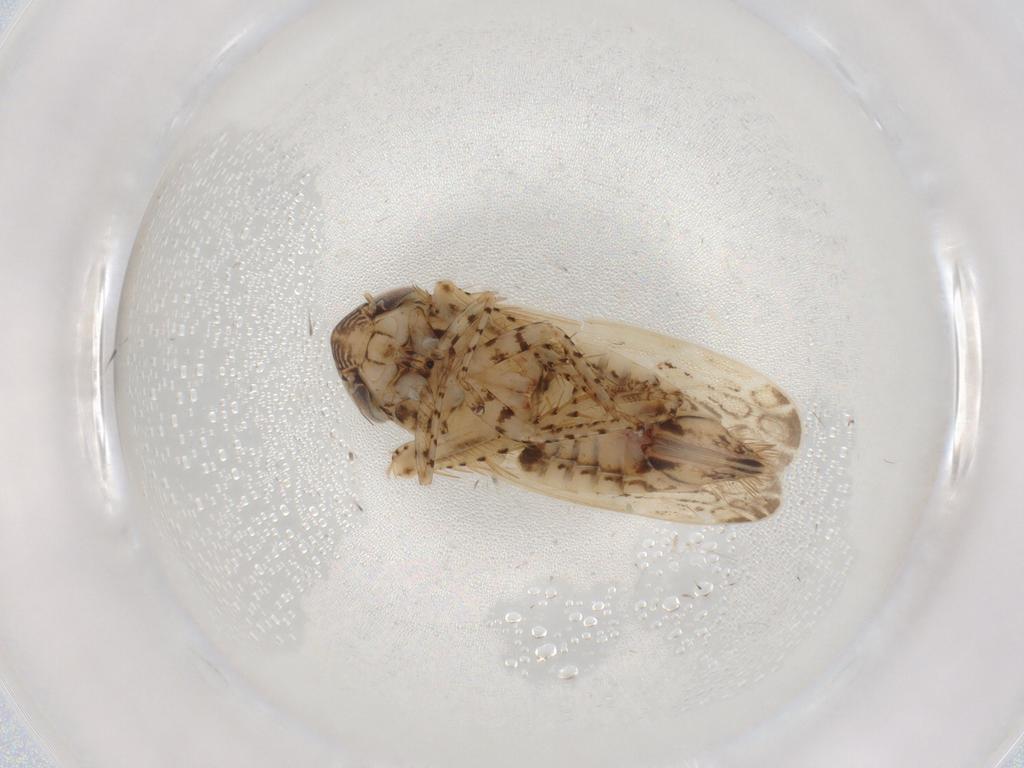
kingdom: Animalia
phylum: Arthropoda
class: Insecta
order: Hemiptera
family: Cicadellidae
